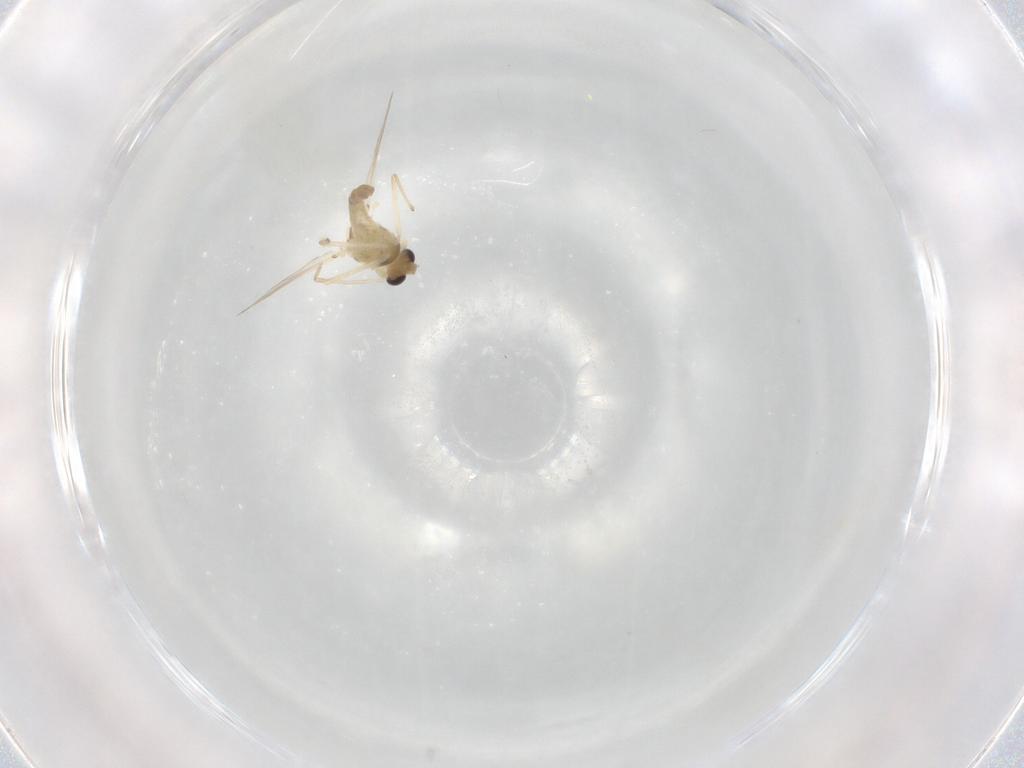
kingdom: Animalia
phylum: Arthropoda
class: Insecta
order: Diptera
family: Chironomidae
